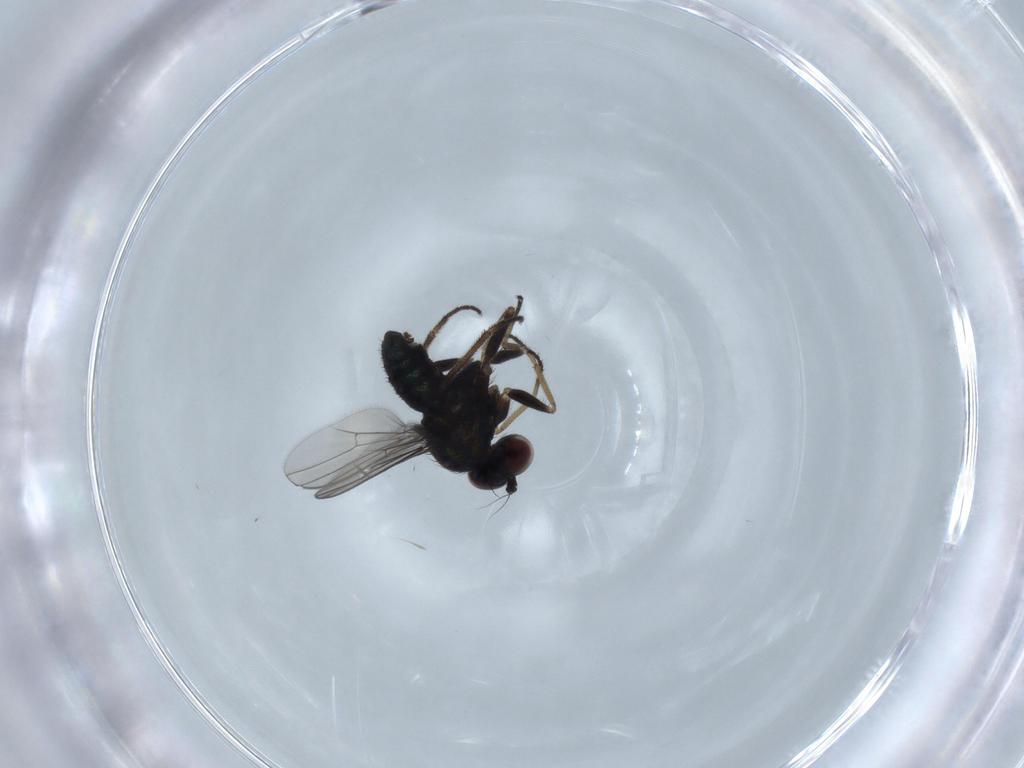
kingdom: Animalia
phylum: Arthropoda
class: Insecta
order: Diptera
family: Dolichopodidae
